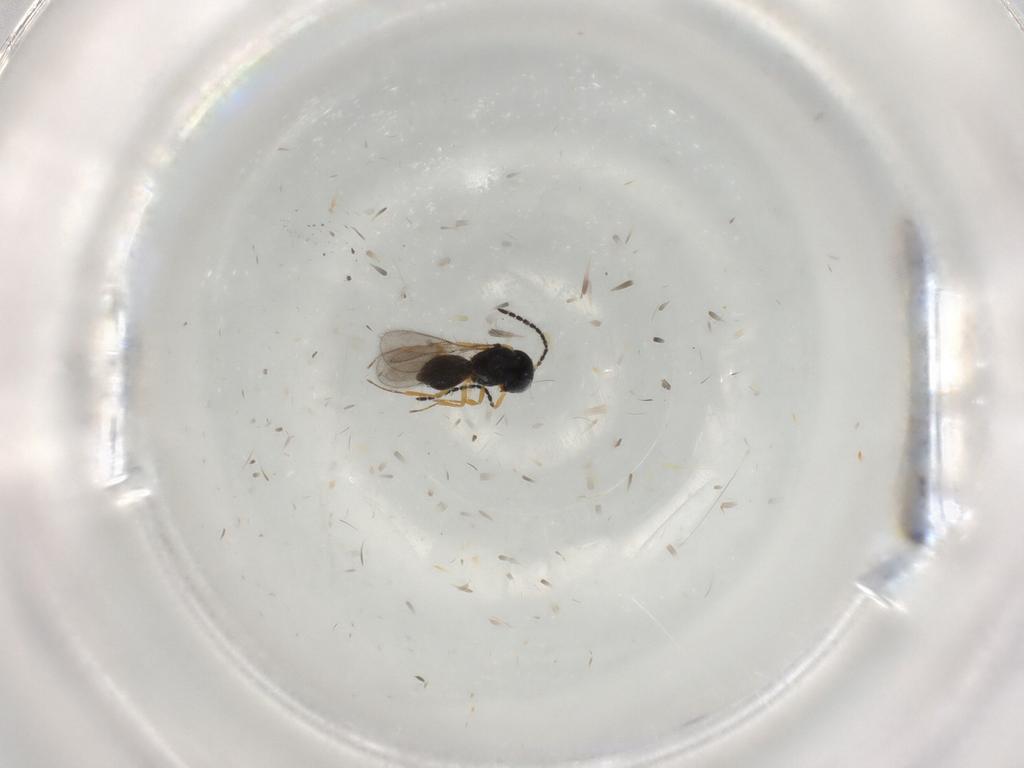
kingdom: Animalia
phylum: Arthropoda
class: Insecta
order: Hymenoptera
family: Scelionidae
